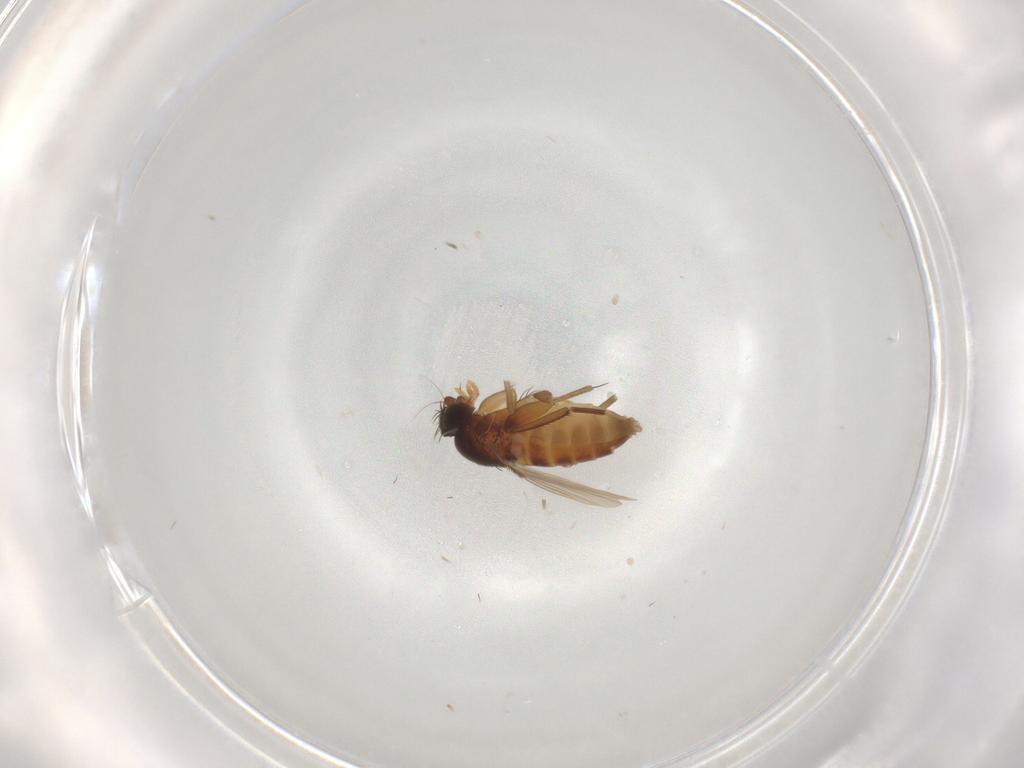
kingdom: Animalia
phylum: Arthropoda
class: Insecta
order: Diptera
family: Phoridae
